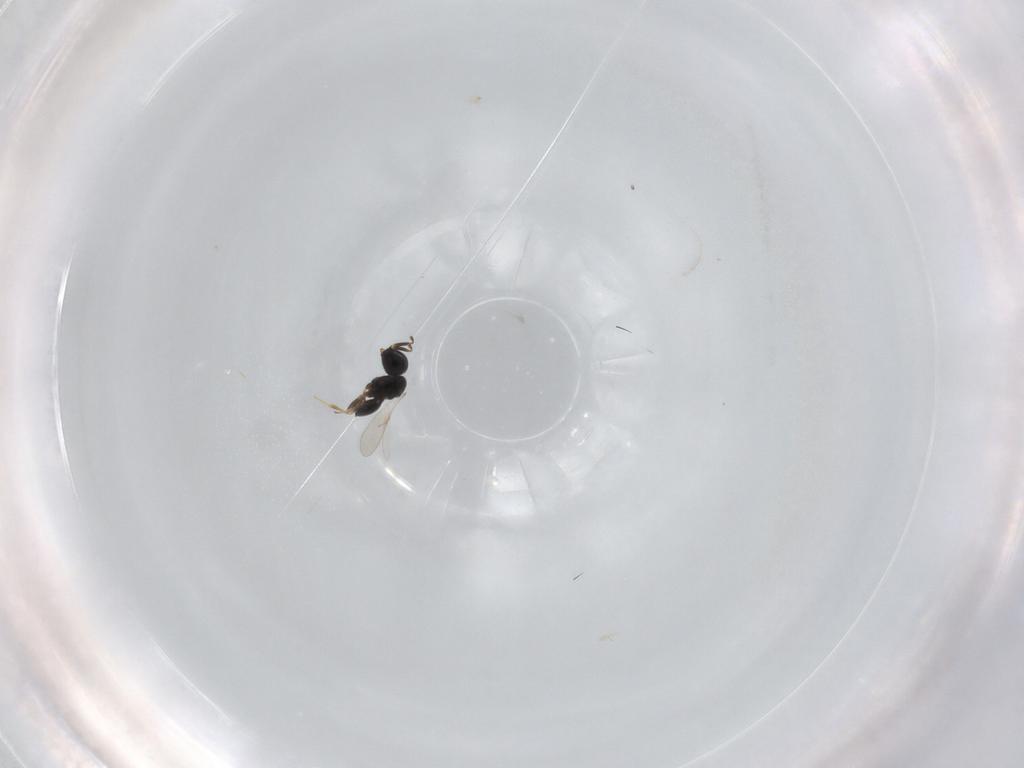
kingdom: Animalia
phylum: Arthropoda
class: Insecta
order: Hymenoptera
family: Scelionidae
